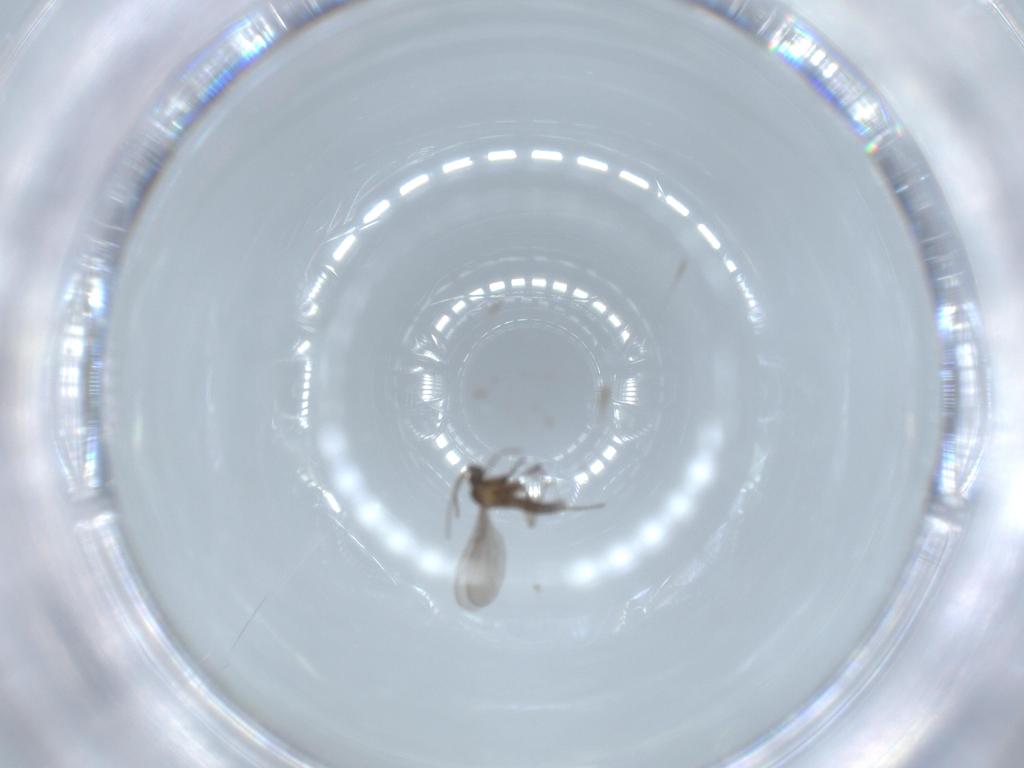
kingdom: Animalia
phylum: Arthropoda
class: Insecta
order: Diptera
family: Sciaridae
